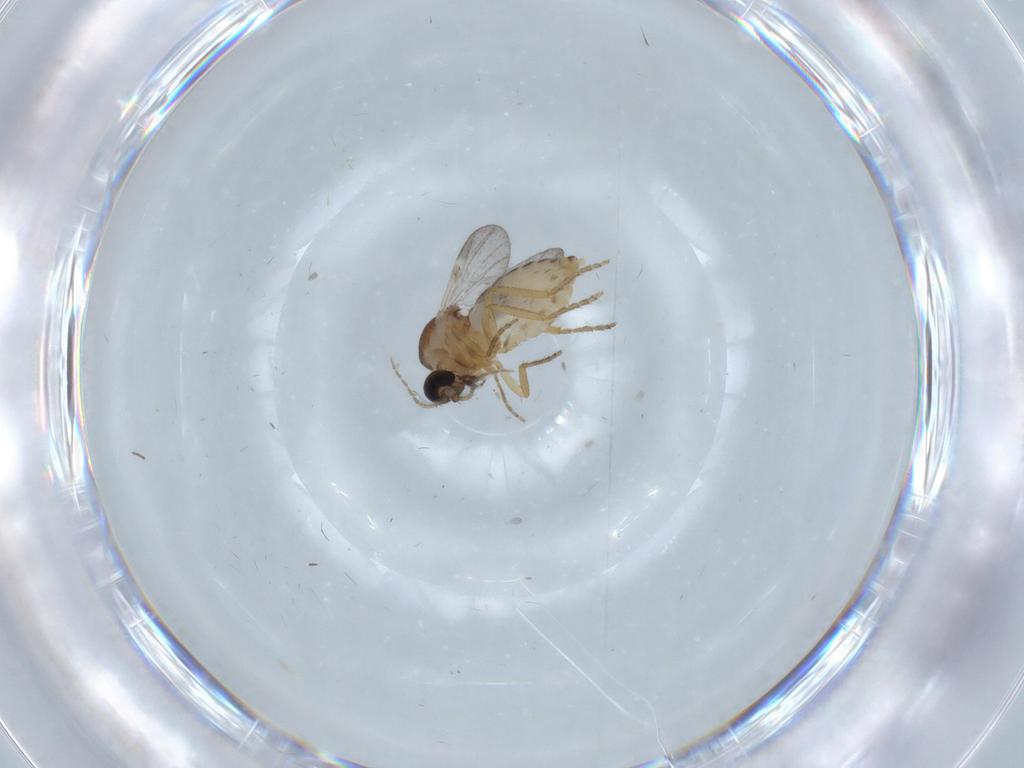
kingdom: Animalia
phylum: Arthropoda
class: Insecta
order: Diptera
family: Ceratopogonidae
